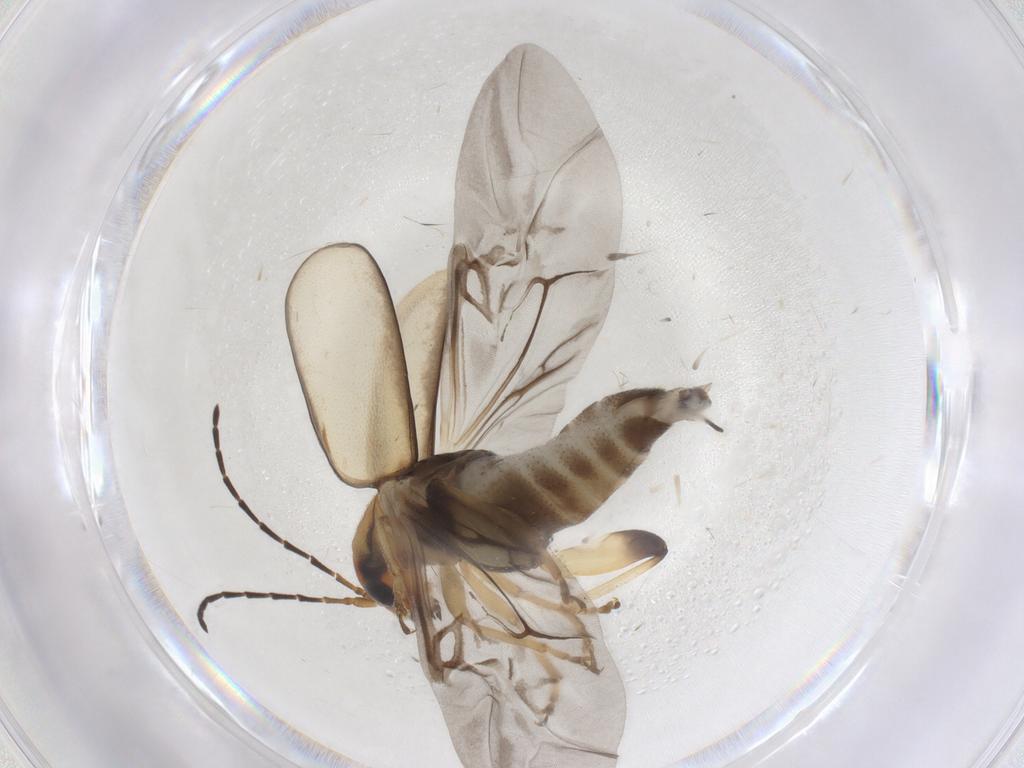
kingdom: Animalia
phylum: Arthropoda
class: Insecta
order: Coleoptera
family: Chrysomelidae
